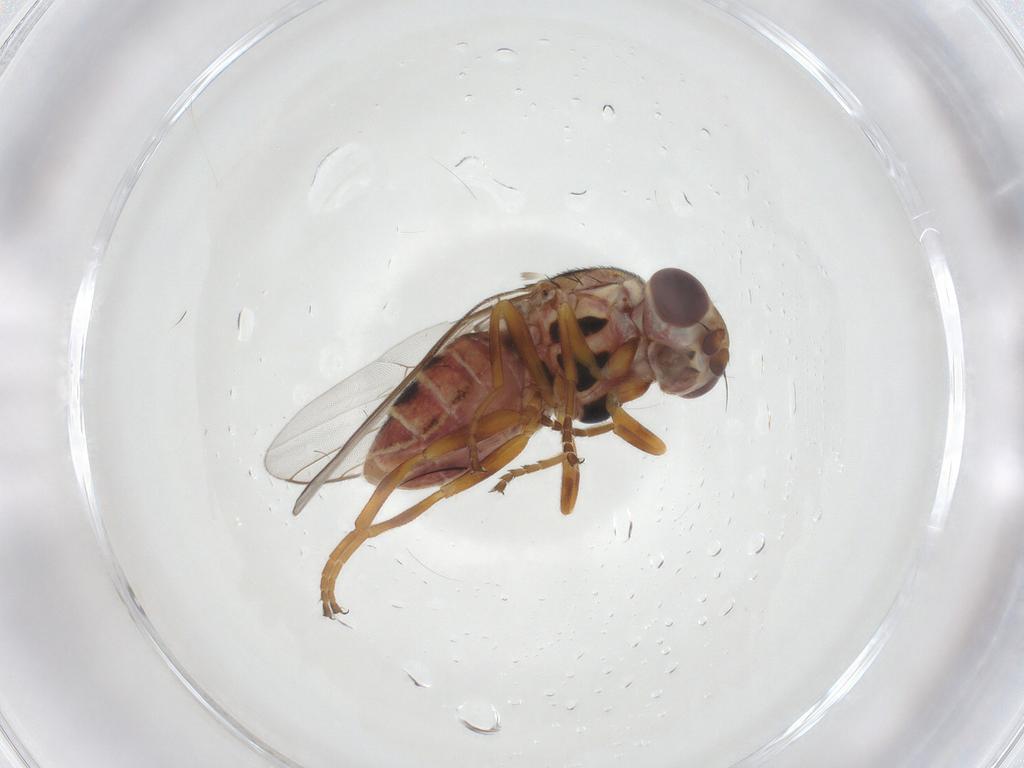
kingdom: Animalia
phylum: Arthropoda
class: Insecta
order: Diptera
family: Chloropidae
